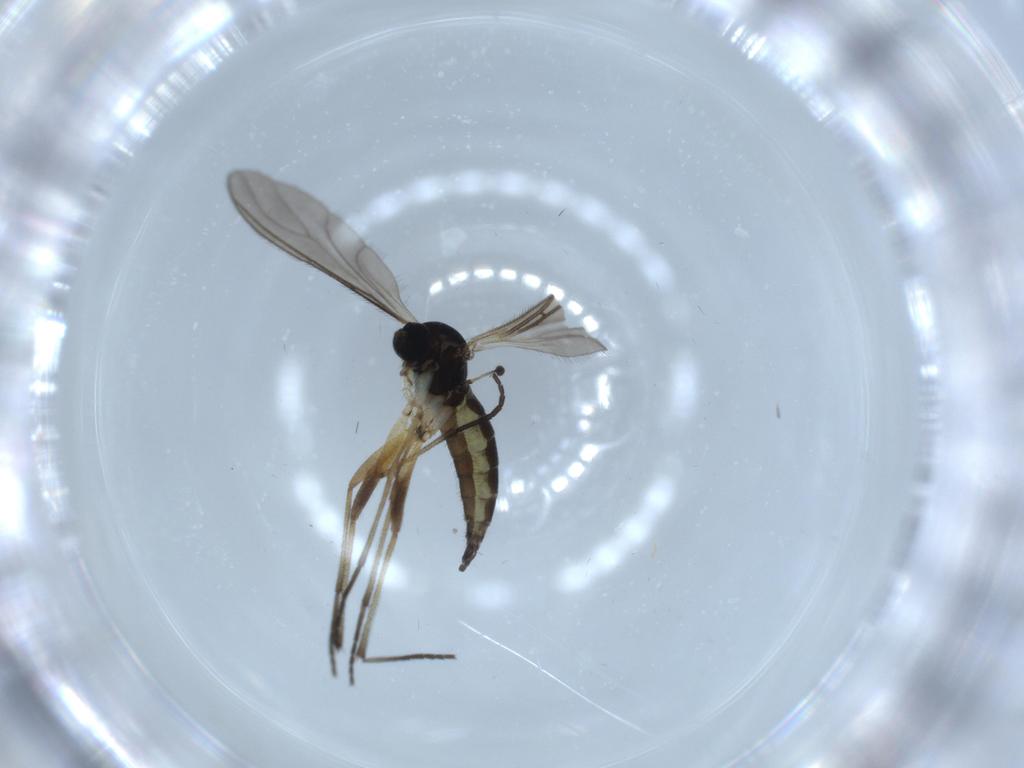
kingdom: Animalia
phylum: Arthropoda
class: Insecta
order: Diptera
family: Sciaridae
